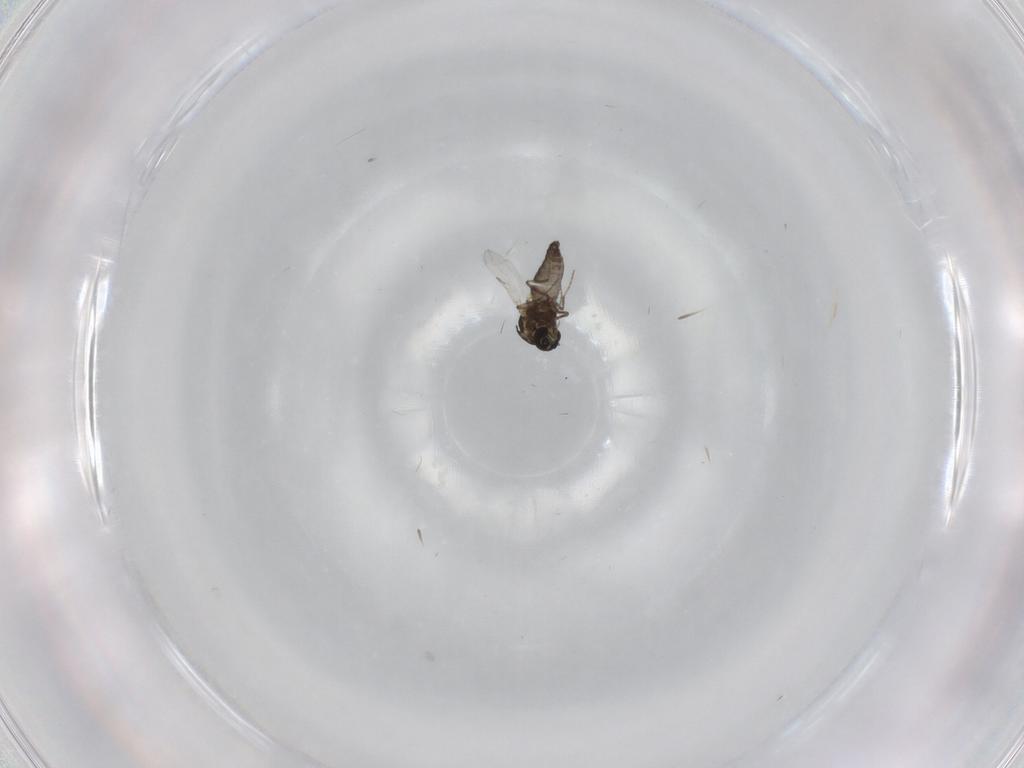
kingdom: Animalia
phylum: Arthropoda
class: Insecta
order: Diptera
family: Ceratopogonidae
